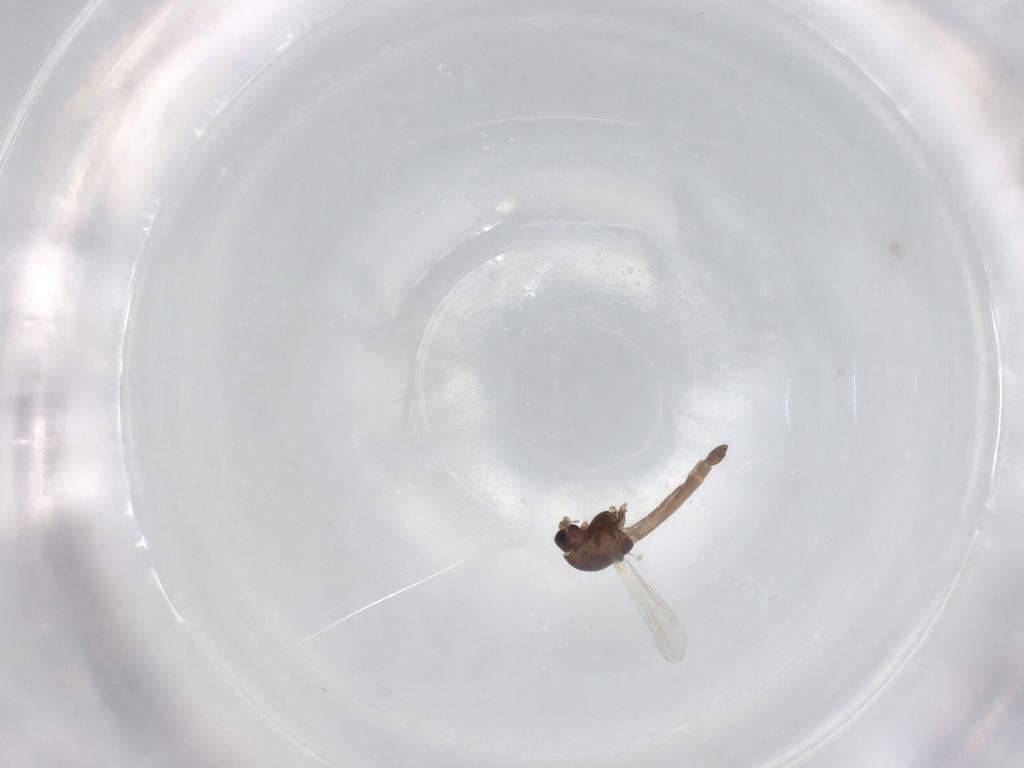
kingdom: Animalia
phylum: Arthropoda
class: Insecta
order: Diptera
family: Chironomidae
